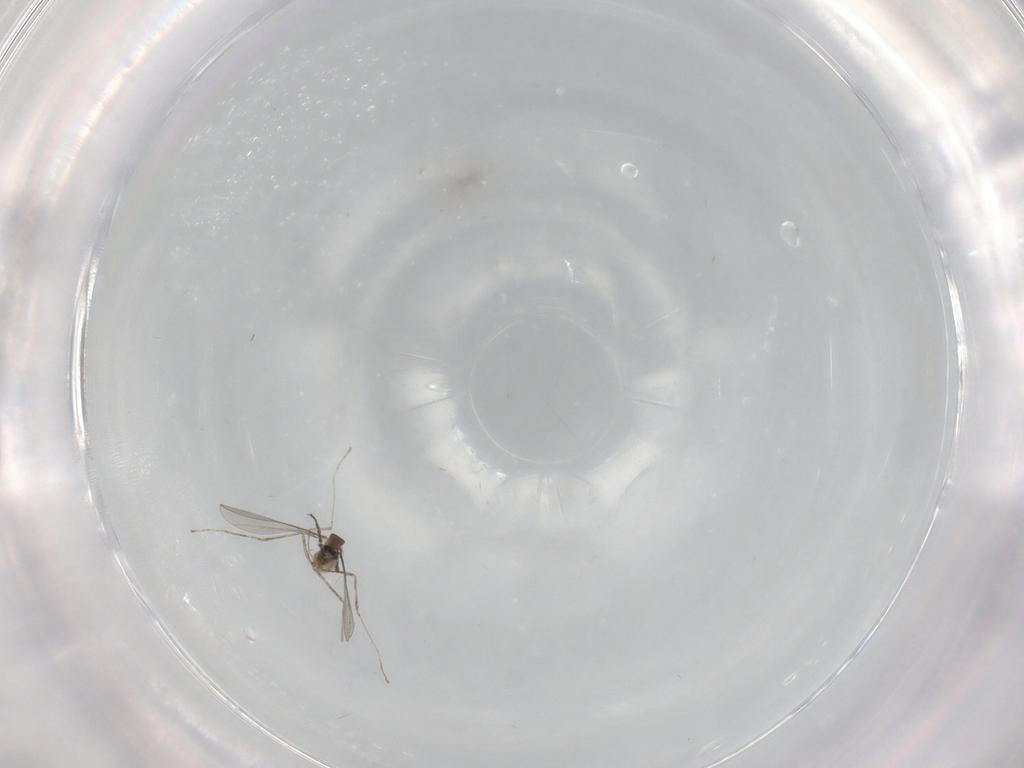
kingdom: Animalia
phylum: Arthropoda
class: Insecta
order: Diptera
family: Cecidomyiidae
